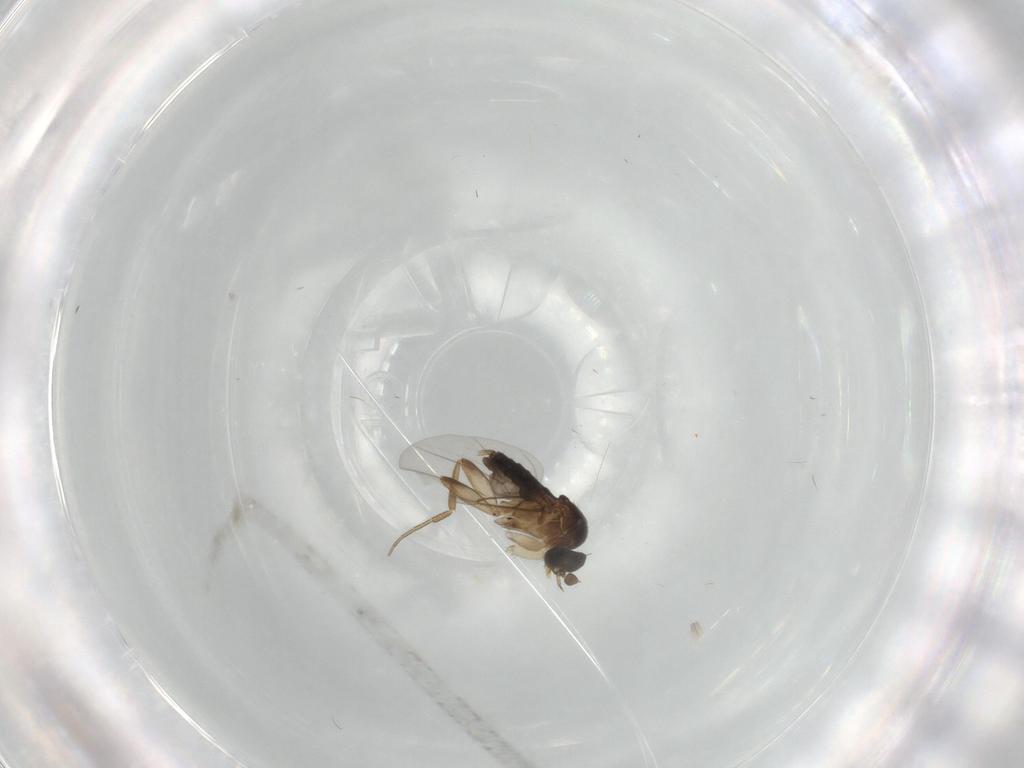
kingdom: Animalia
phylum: Arthropoda
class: Insecta
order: Diptera
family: Phoridae
